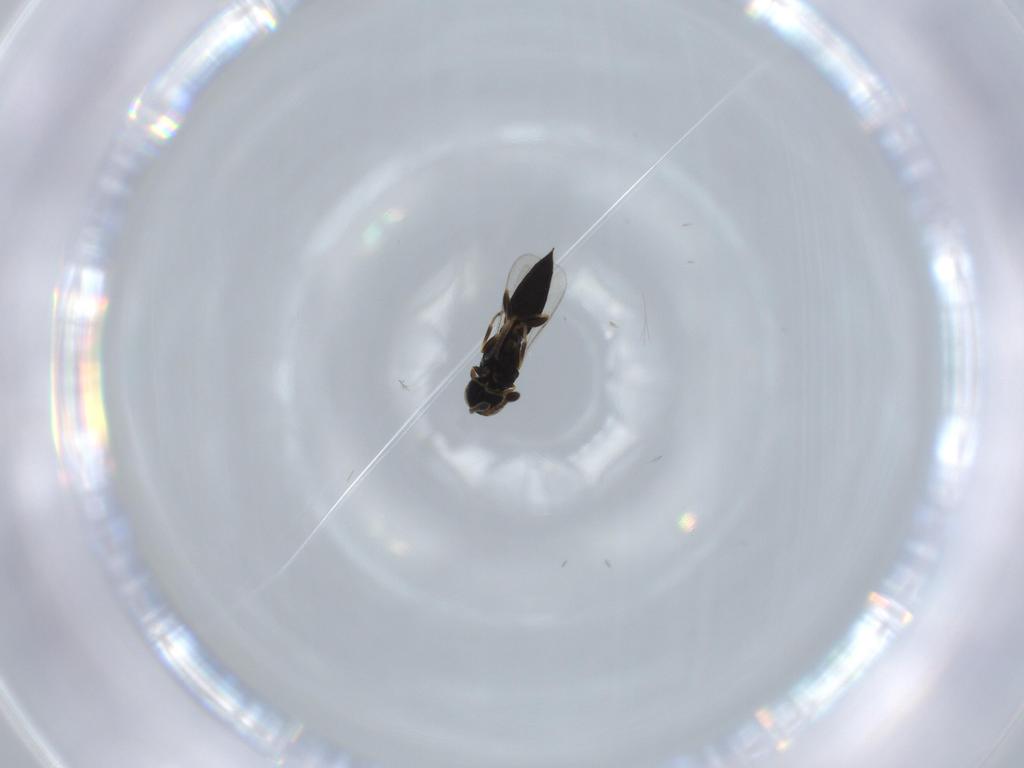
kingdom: Animalia
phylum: Arthropoda
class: Insecta
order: Hymenoptera
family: Scelionidae
